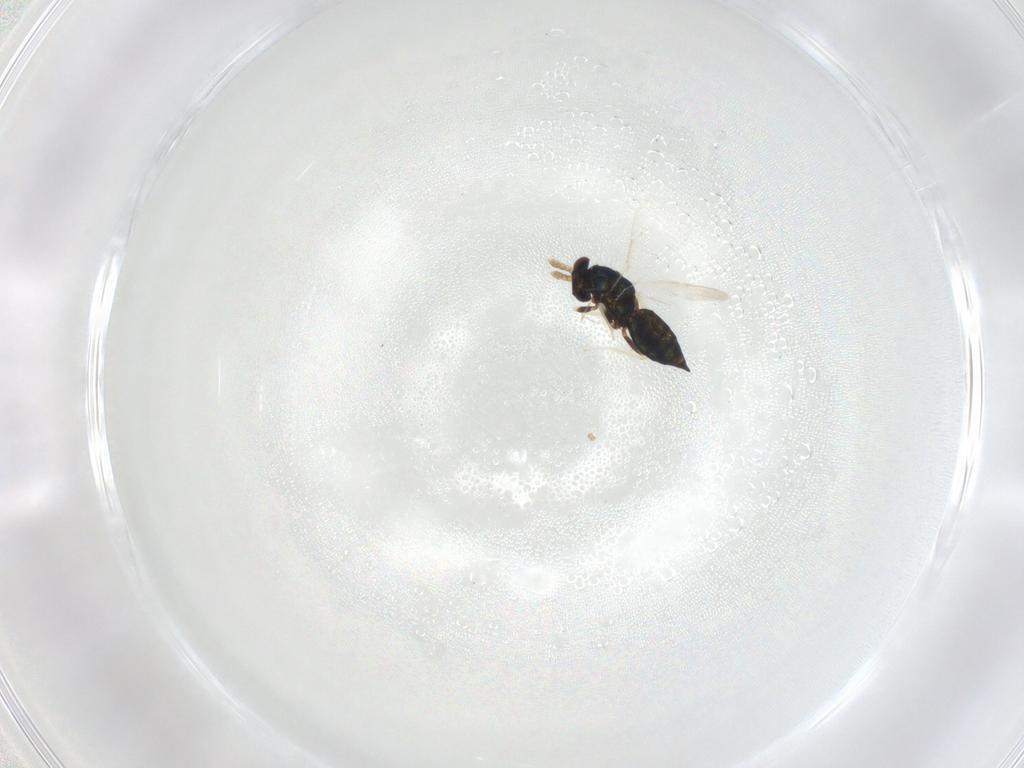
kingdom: Animalia
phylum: Arthropoda
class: Insecta
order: Hymenoptera
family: Eulophidae
